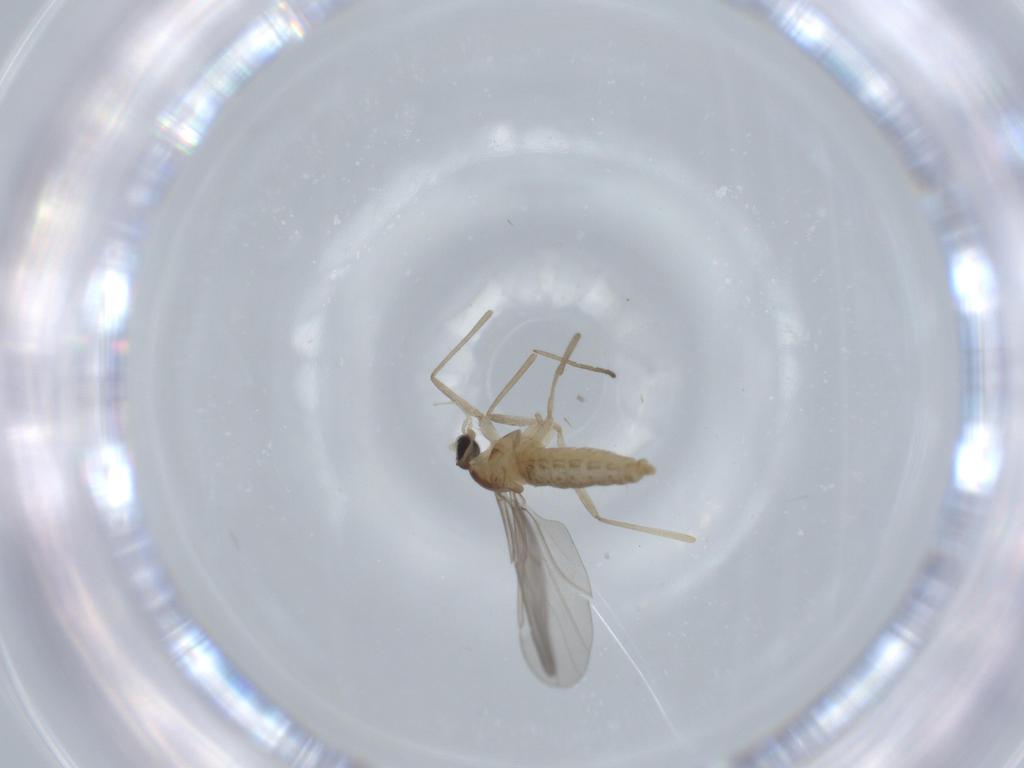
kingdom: Animalia
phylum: Arthropoda
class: Insecta
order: Diptera
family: Cecidomyiidae
